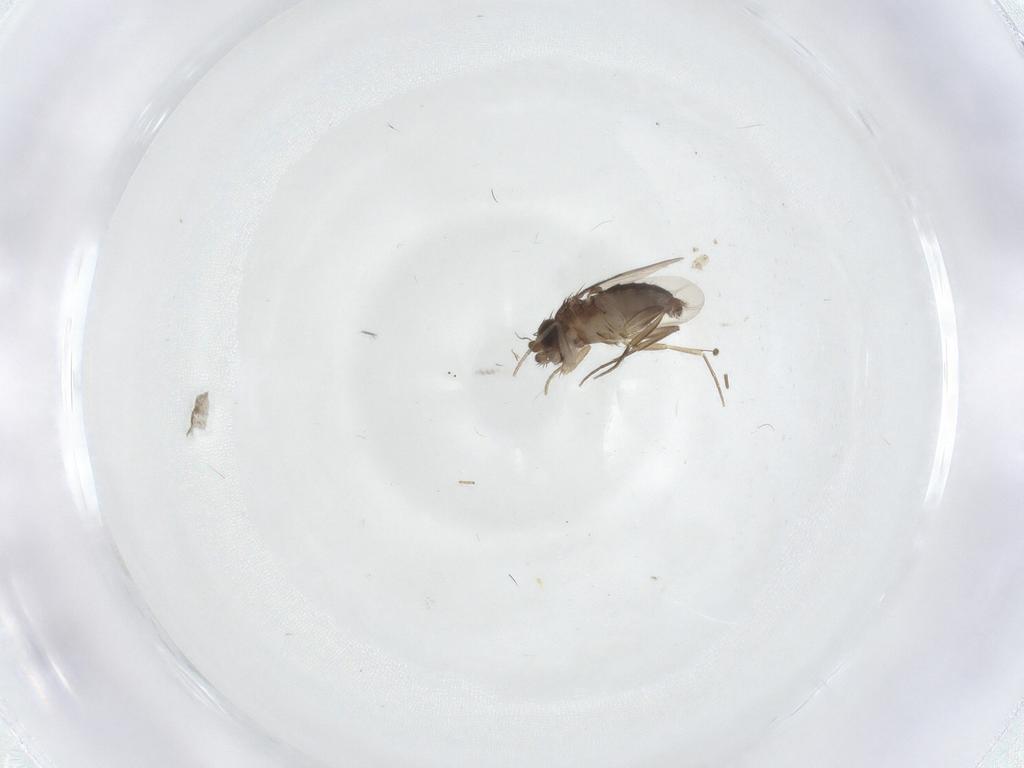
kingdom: Animalia
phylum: Arthropoda
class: Insecta
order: Diptera
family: Phoridae
